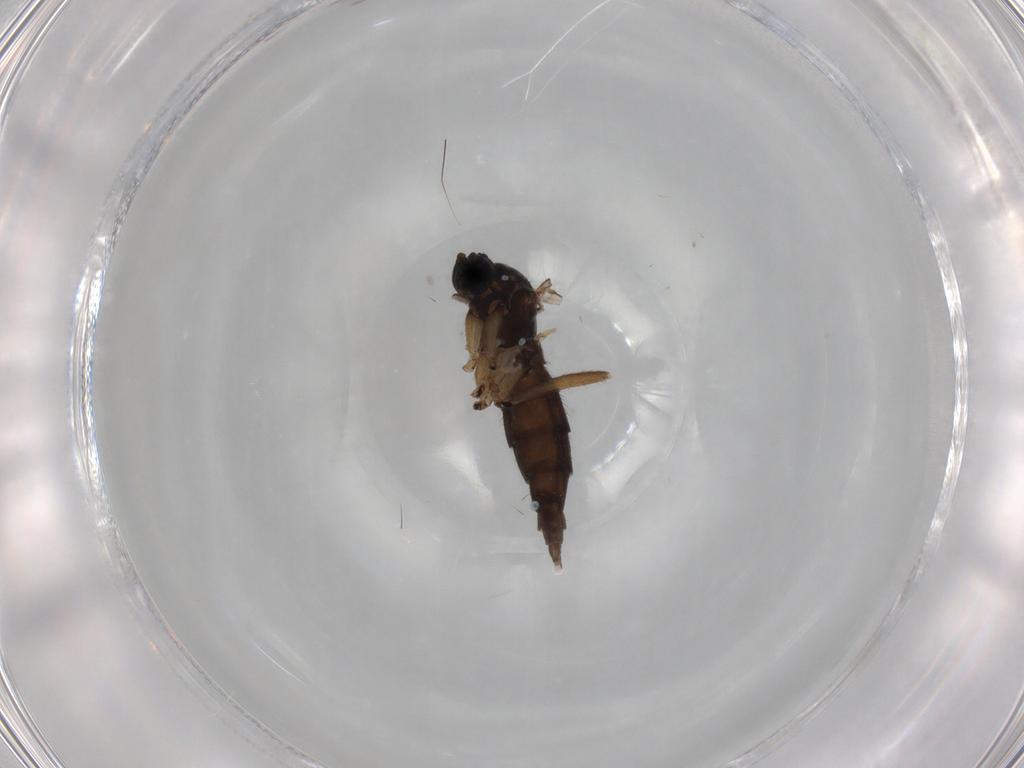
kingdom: Animalia
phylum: Arthropoda
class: Insecta
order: Diptera
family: Sciaridae
